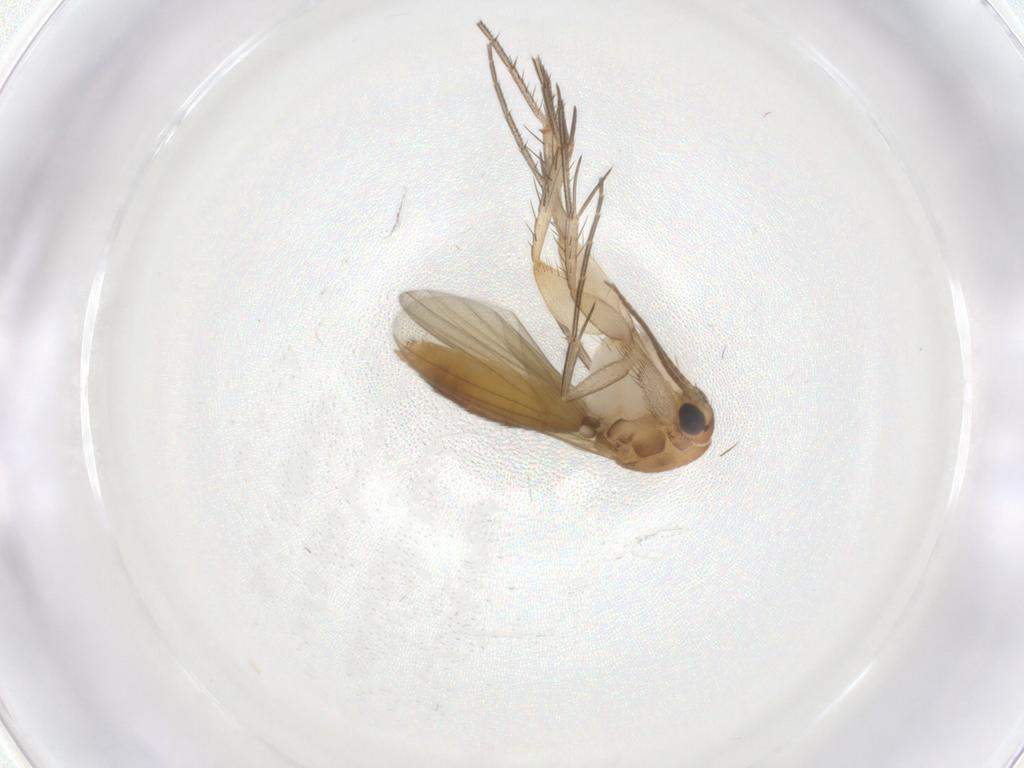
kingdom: Animalia
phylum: Arthropoda
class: Insecta
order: Diptera
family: Mycetophilidae
